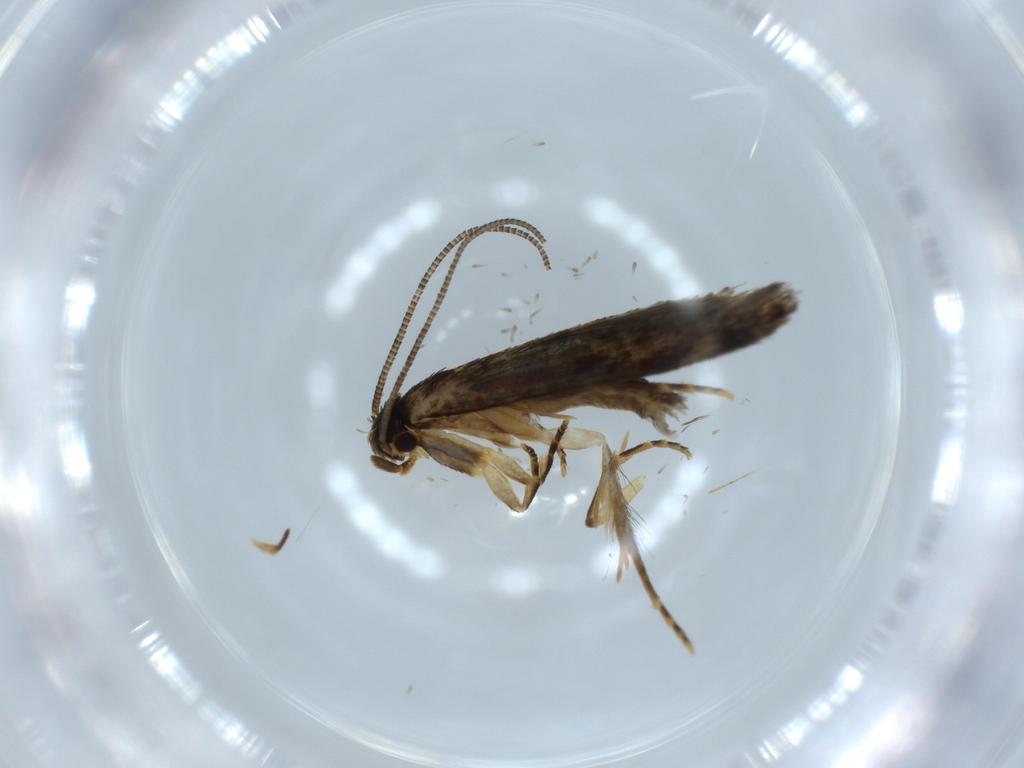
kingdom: Animalia
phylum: Arthropoda
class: Insecta
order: Lepidoptera
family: Tineidae
